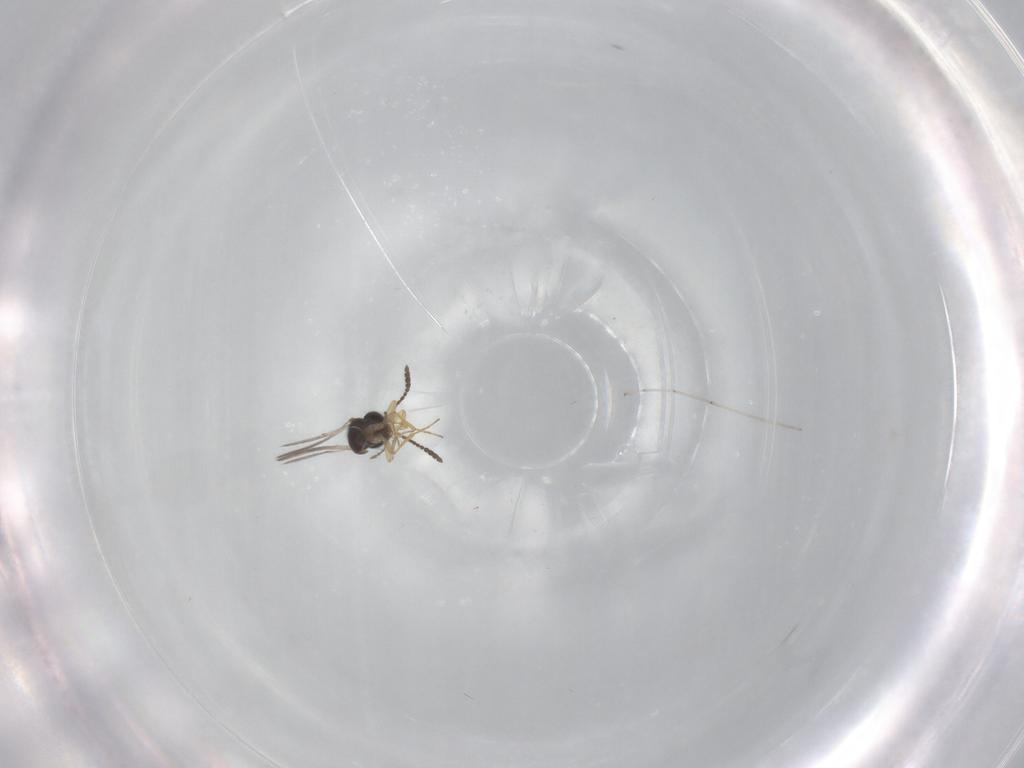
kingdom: Animalia
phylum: Arthropoda
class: Insecta
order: Hymenoptera
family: Scelionidae
